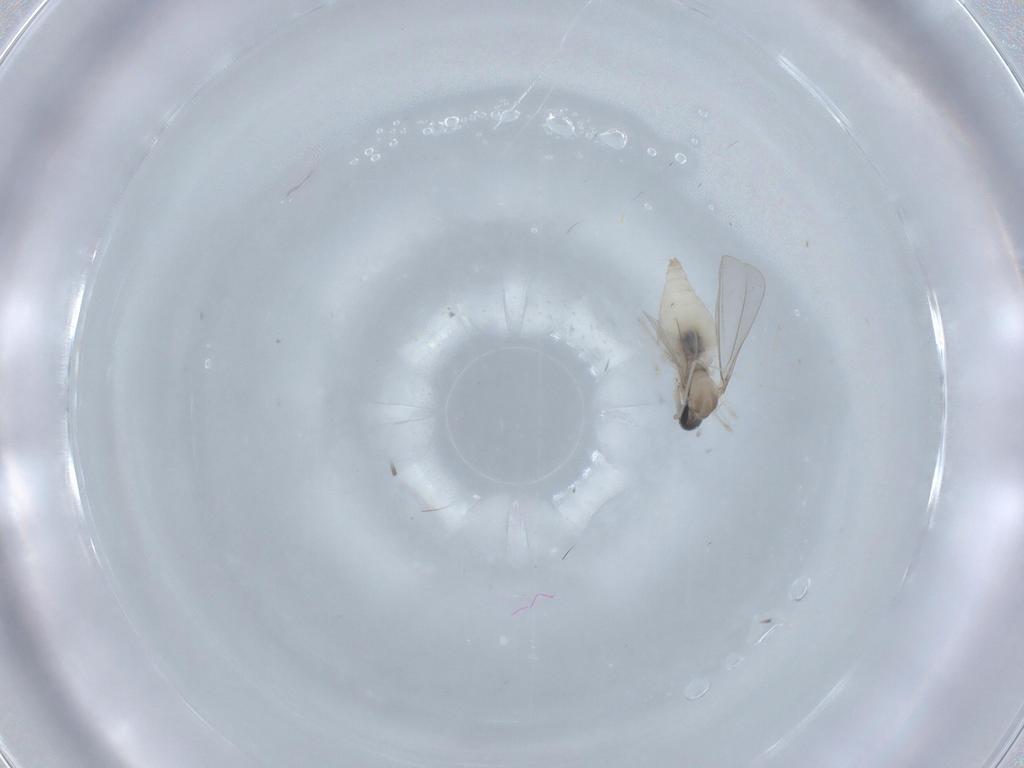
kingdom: Animalia
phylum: Arthropoda
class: Insecta
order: Diptera
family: Cecidomyiidae
